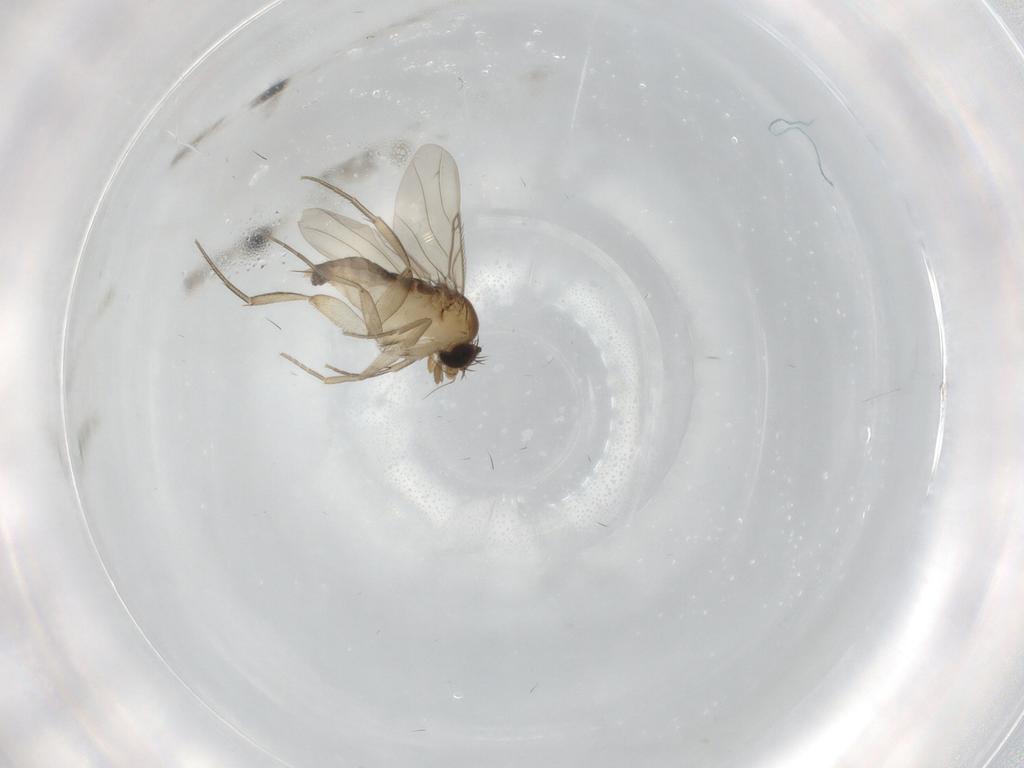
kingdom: Animalia
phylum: Arthropoda
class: Insecta
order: Diptera
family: Phoridae
